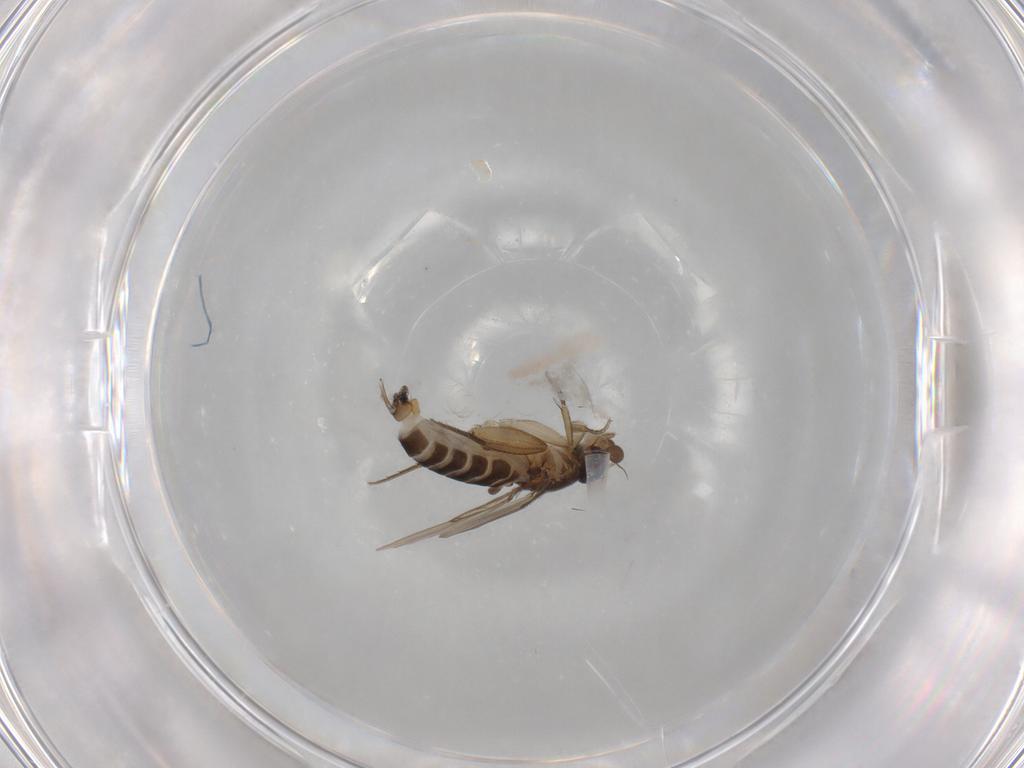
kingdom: Animalia
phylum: Arthropoda
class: Insecta
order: Diptera
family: Phoridae
